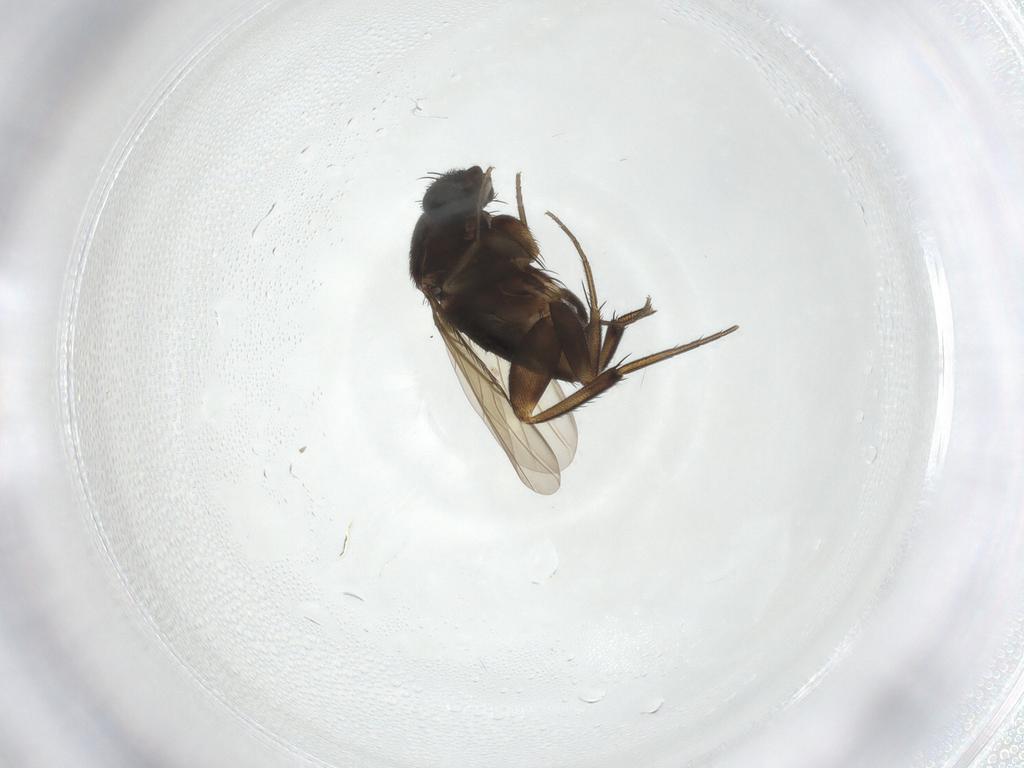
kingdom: Animalia
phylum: Arthropoda
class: Insecta
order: Diptera
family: Phoridae
